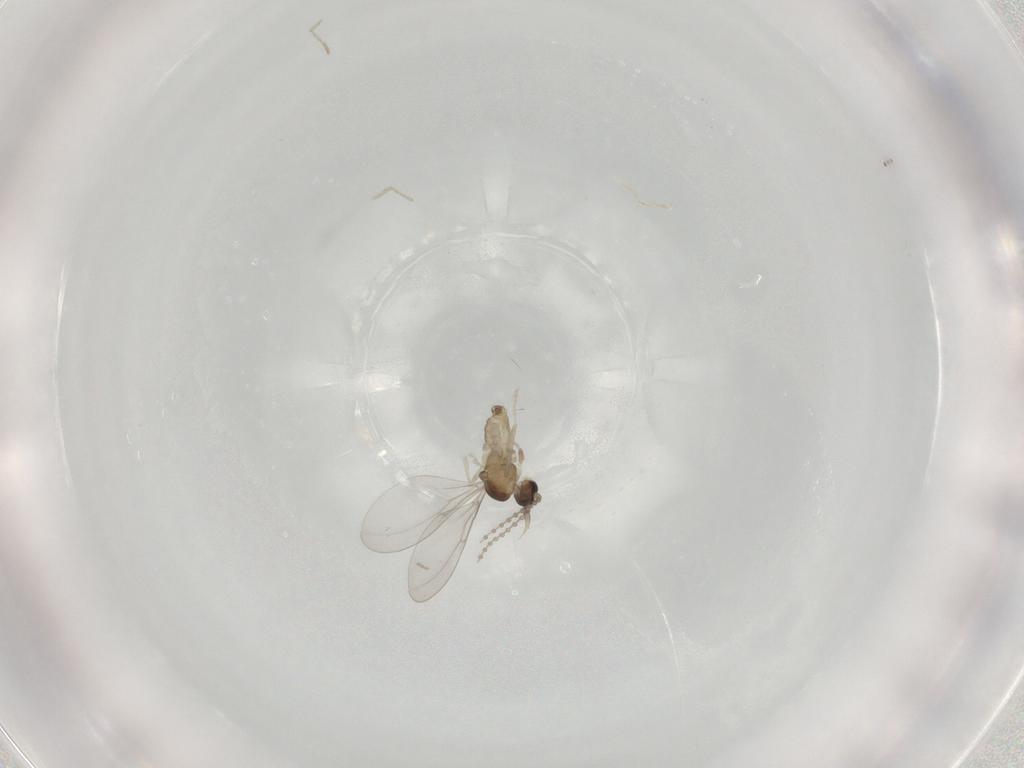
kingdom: Animalia
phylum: Arthropoda
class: Insecta
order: Diptera
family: Cecidomyiidae
